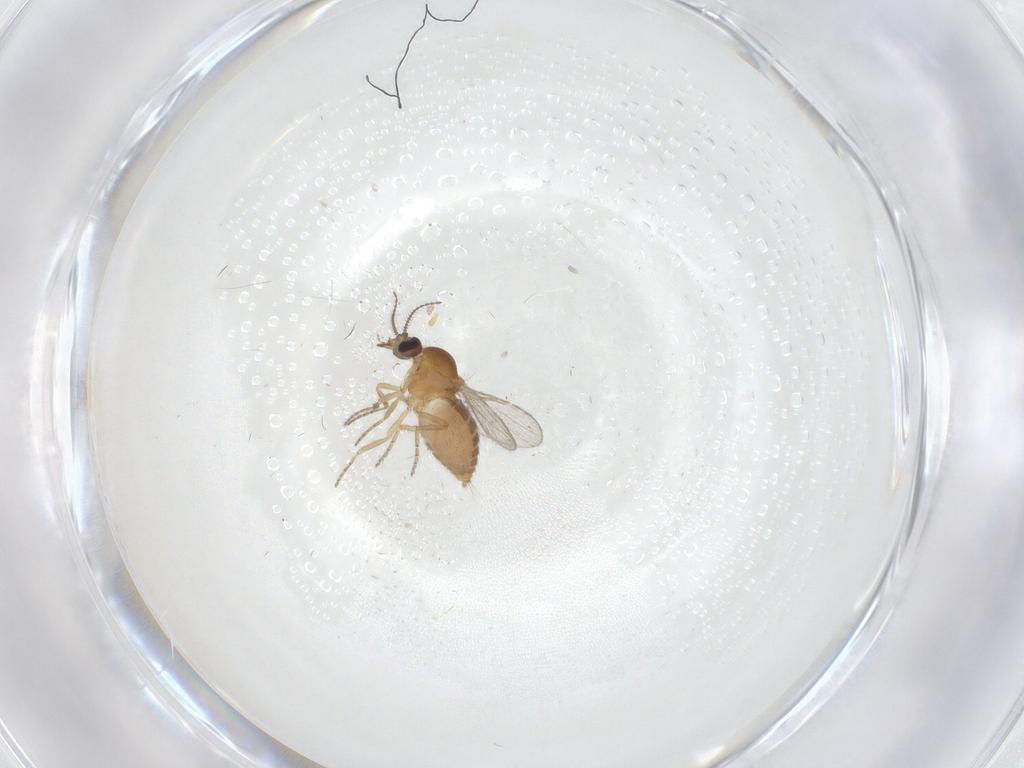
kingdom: Animalia
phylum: Arthropoda
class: Insecta
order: Diptera
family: Ceratopogonidae
